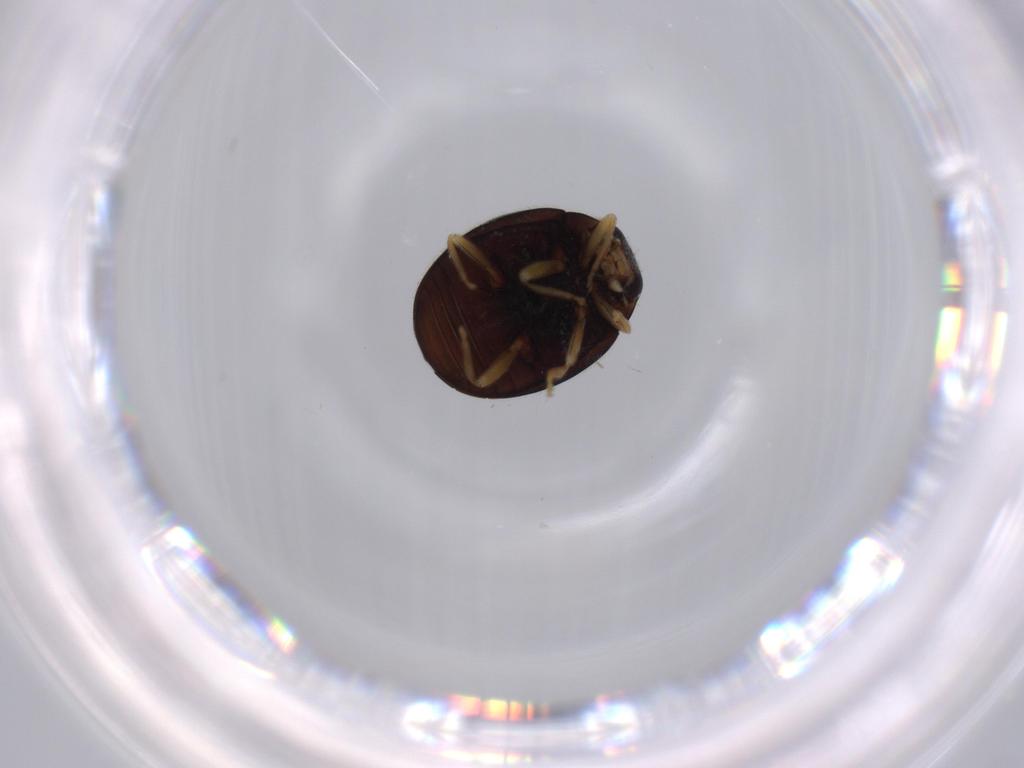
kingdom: Animalia
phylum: Arthropoda
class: Insecta
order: Coleoptera
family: Coccinellidae
